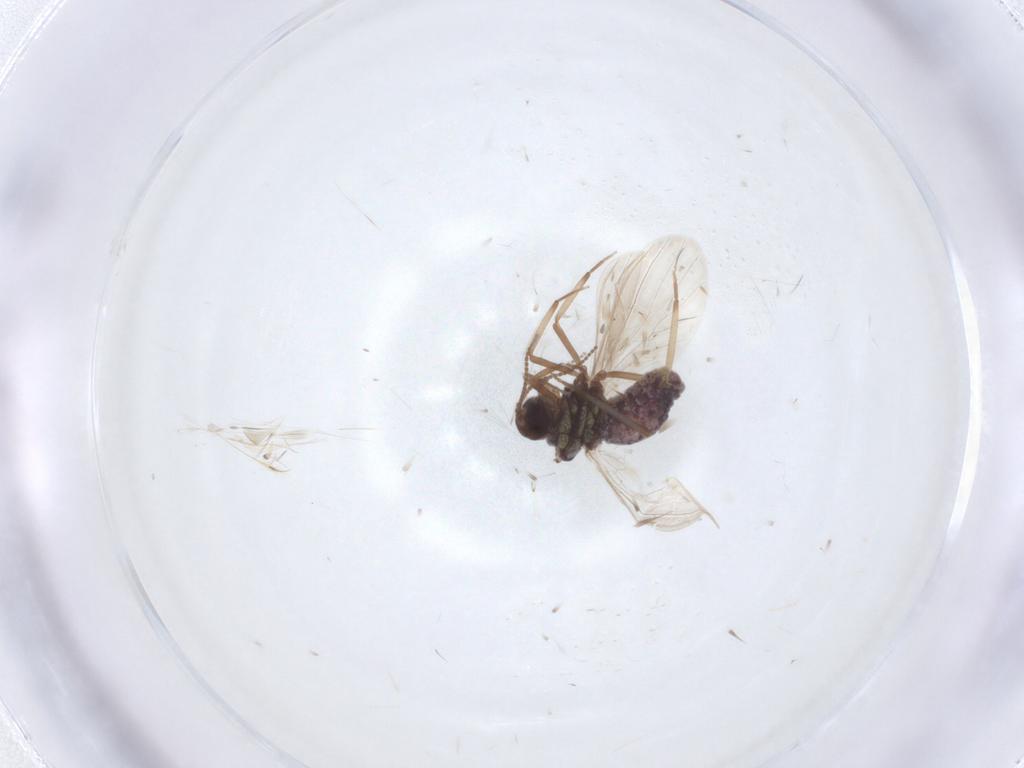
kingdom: Animalia
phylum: Arthropoda
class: Insecta
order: Neuroptera
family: Coniopterygidae
